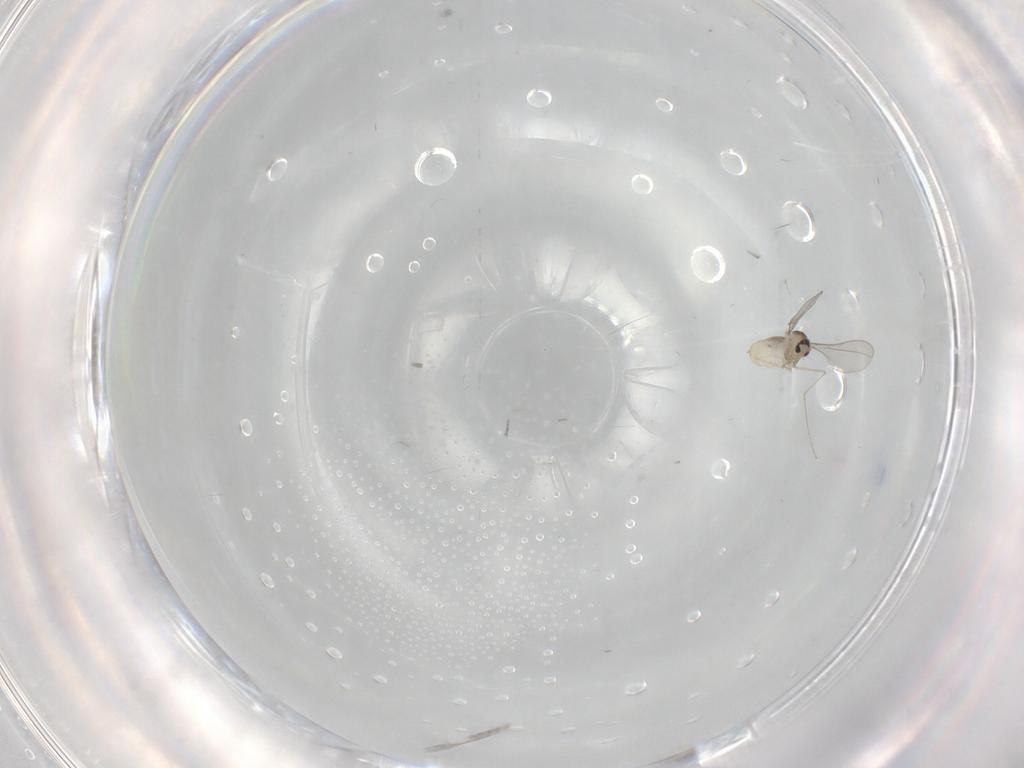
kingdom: Animalia
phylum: Arthropoda
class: Insecta
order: Diptera
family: Cecidomyiidae
